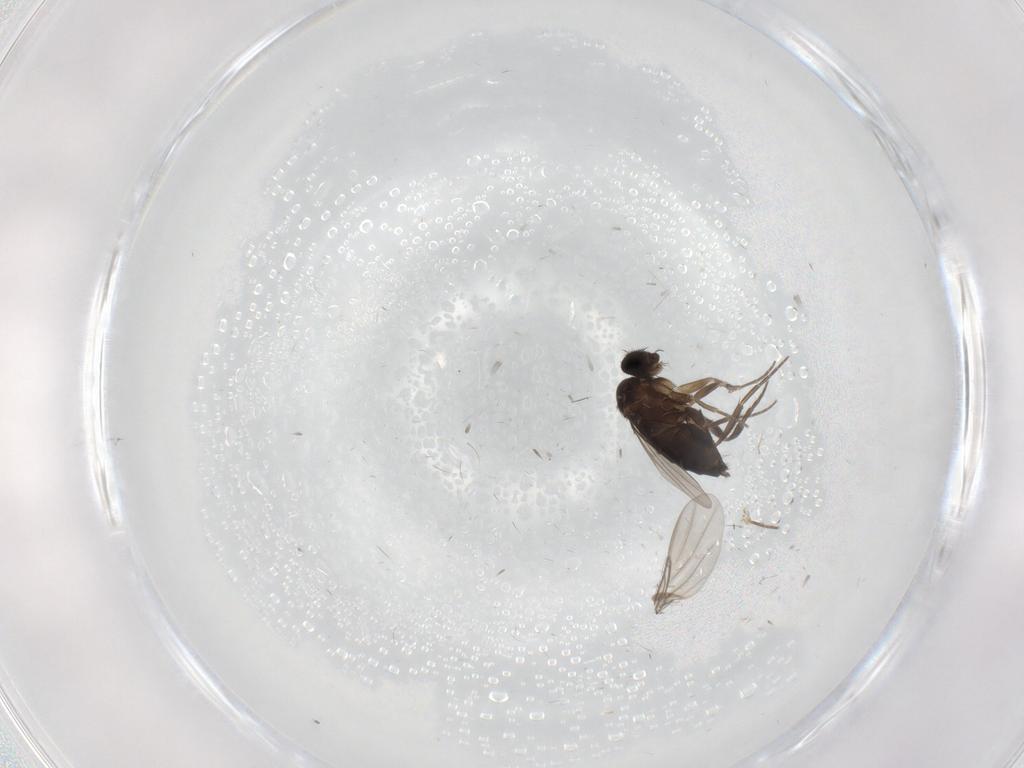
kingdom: Animalia
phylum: Arthropoda
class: Insecta
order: Diptera
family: Phoridae
